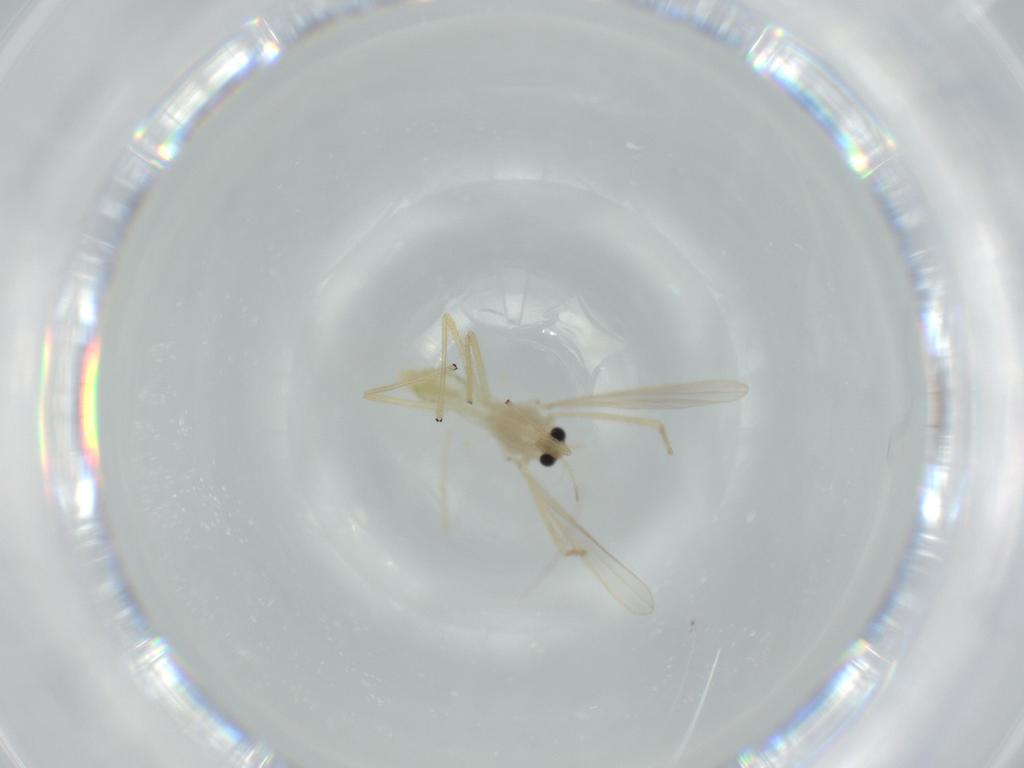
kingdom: Animalia
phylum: Arthropoda
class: Insecta
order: Diptera
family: Chironomidae
